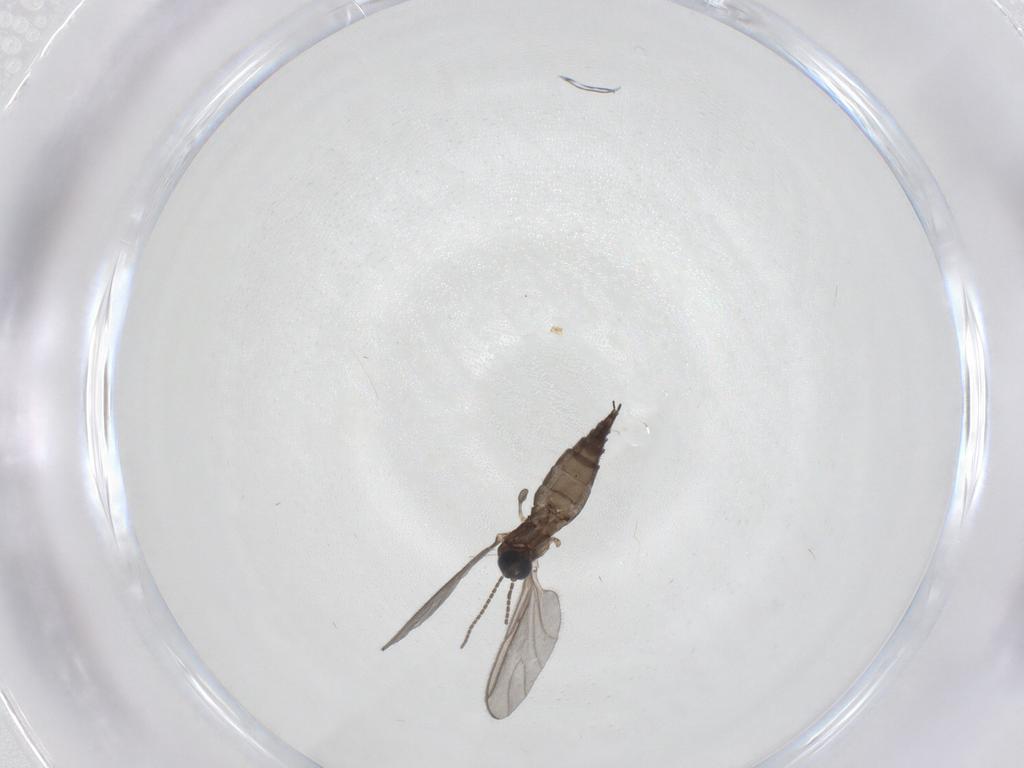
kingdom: Animalia
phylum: Arthropoda
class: Insecta
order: Diptera
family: Sciaridae
